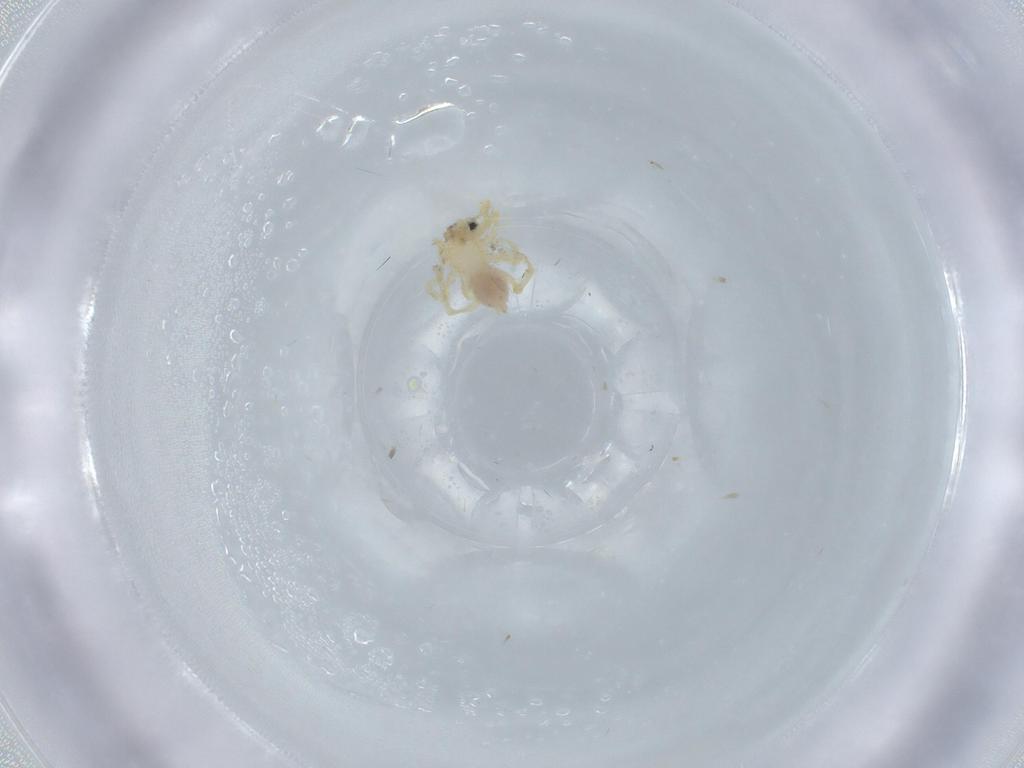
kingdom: Animalia
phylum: Arthropoda
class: Arachnida
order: Araneae
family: Oonopidae
